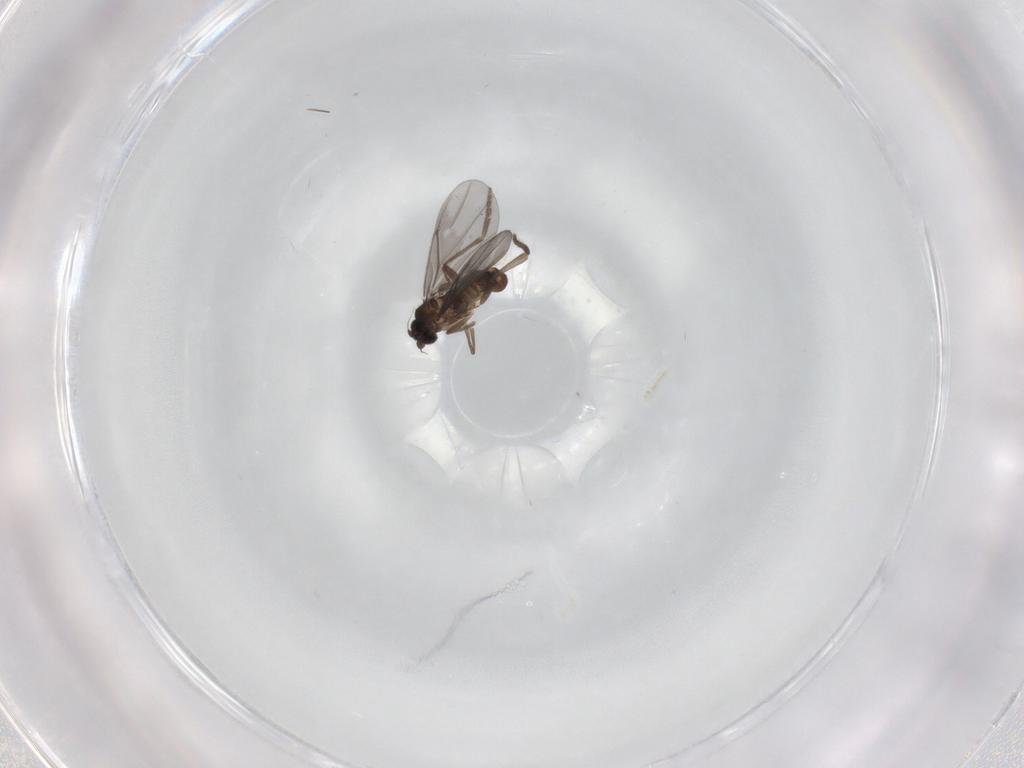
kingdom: Animalia
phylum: Arthropoda
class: Insecta
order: Diptera
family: Phoridae
